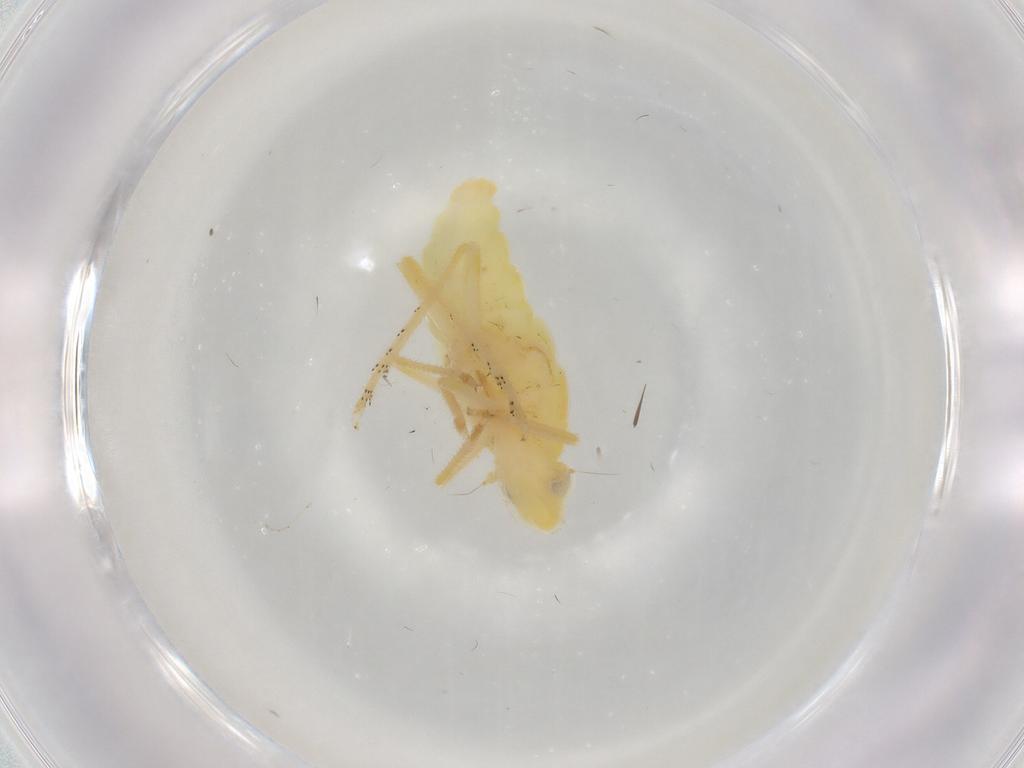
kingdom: Animalia
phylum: Arthropoda
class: Insecta
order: Hemiptera
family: Fulgoroidea_incertae_sedis
